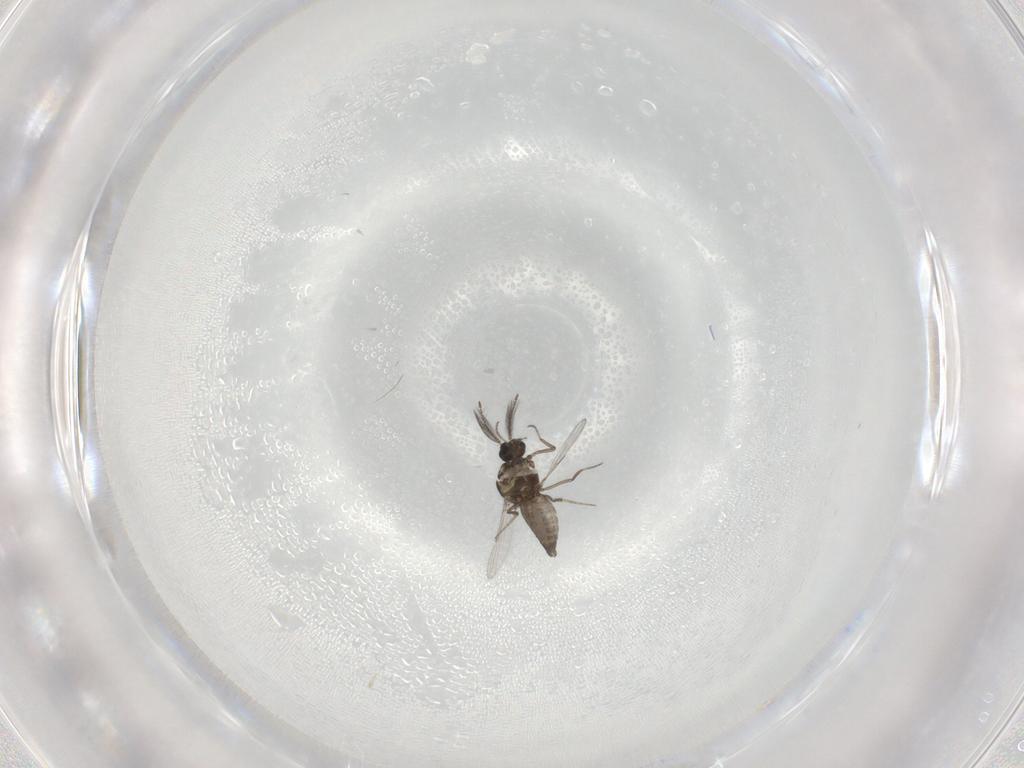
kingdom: Animalia
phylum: Arthropoda
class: Insecta
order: Diptera
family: Ceratopogonidae
